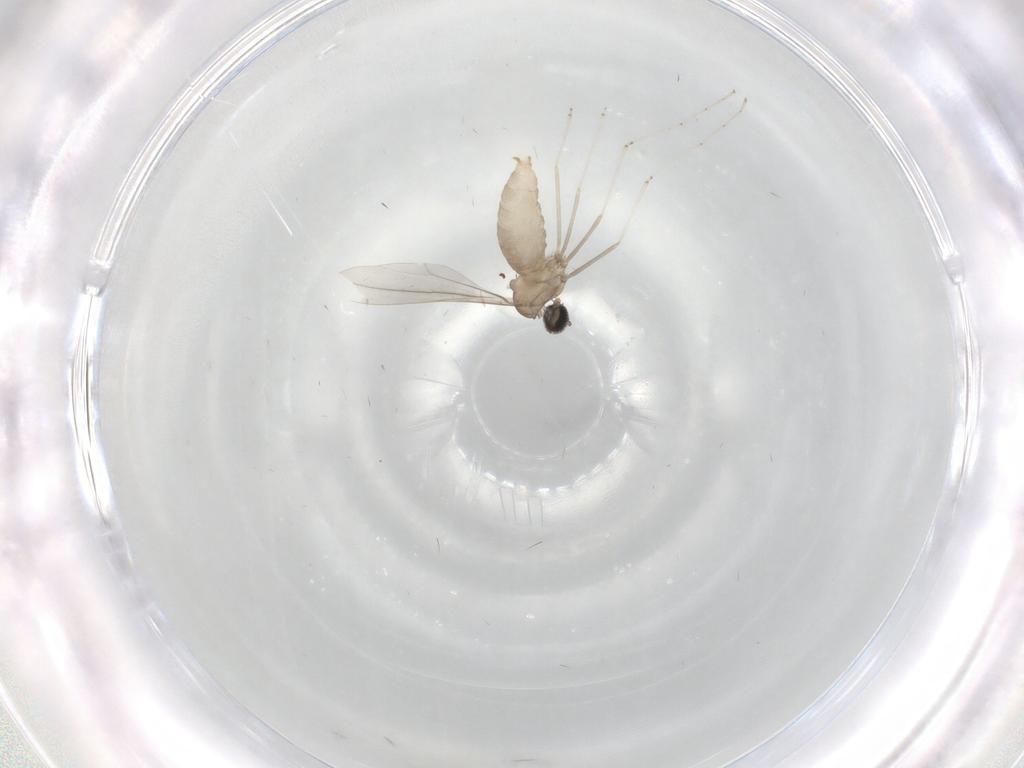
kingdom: Animalia
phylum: Arthropoda
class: Insecta
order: Diptera
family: Cecidomyiidae
